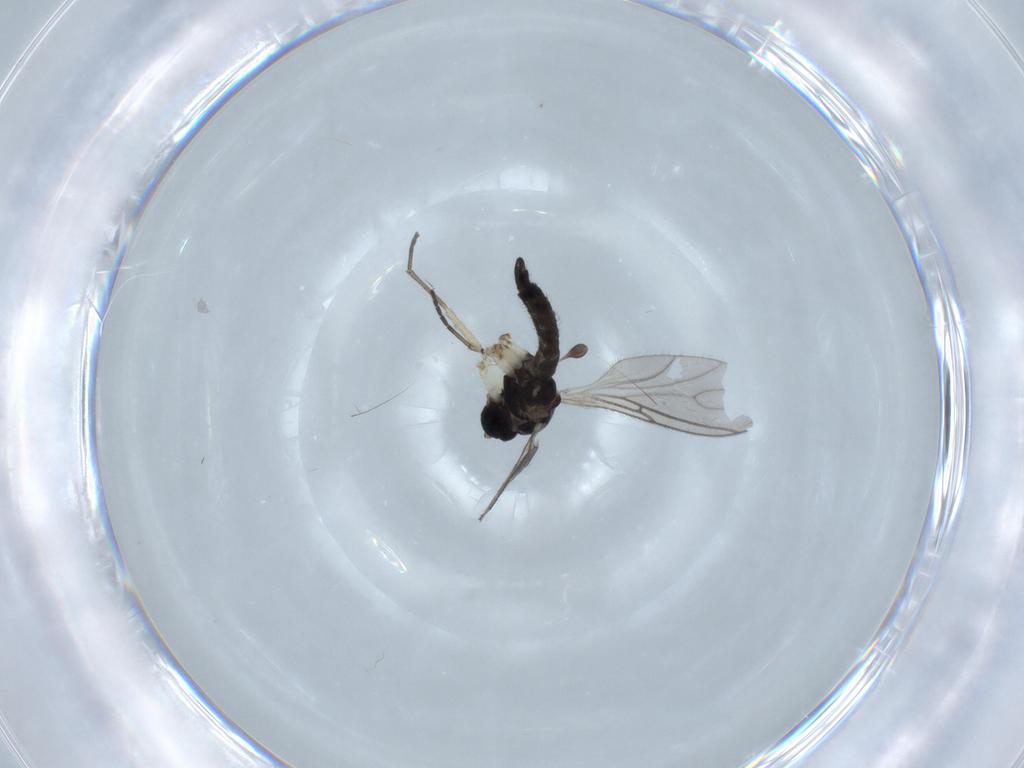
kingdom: Animalia
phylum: Arthropoda
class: Insecta
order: Diptera
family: Sciaridae
